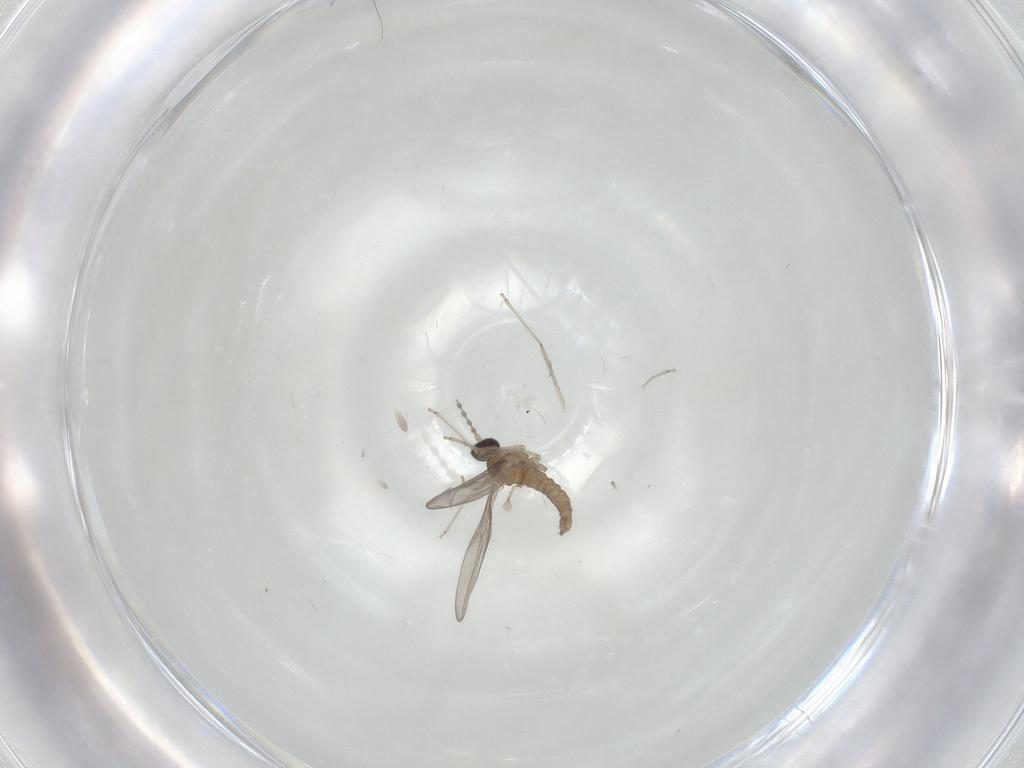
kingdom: Animalia
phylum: Arthropoda
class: Insecta
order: Diptera
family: Cecidomyiidae
